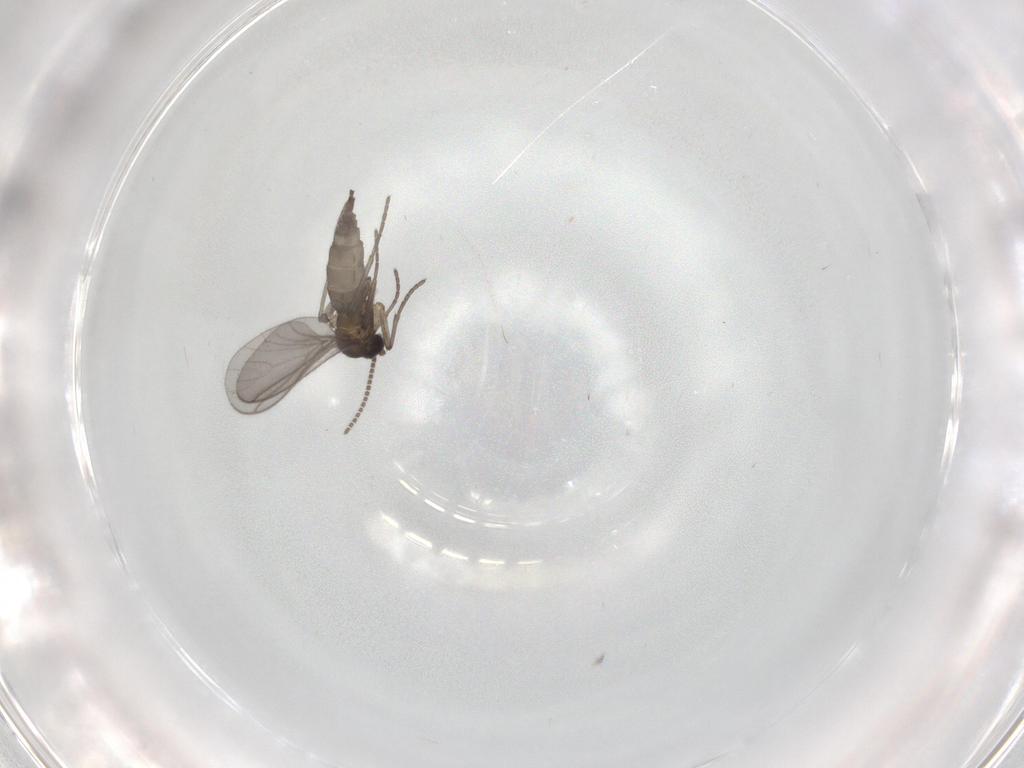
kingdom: Animalia
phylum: Arthropoda
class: Insecta
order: Diptera
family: Sciaridae
